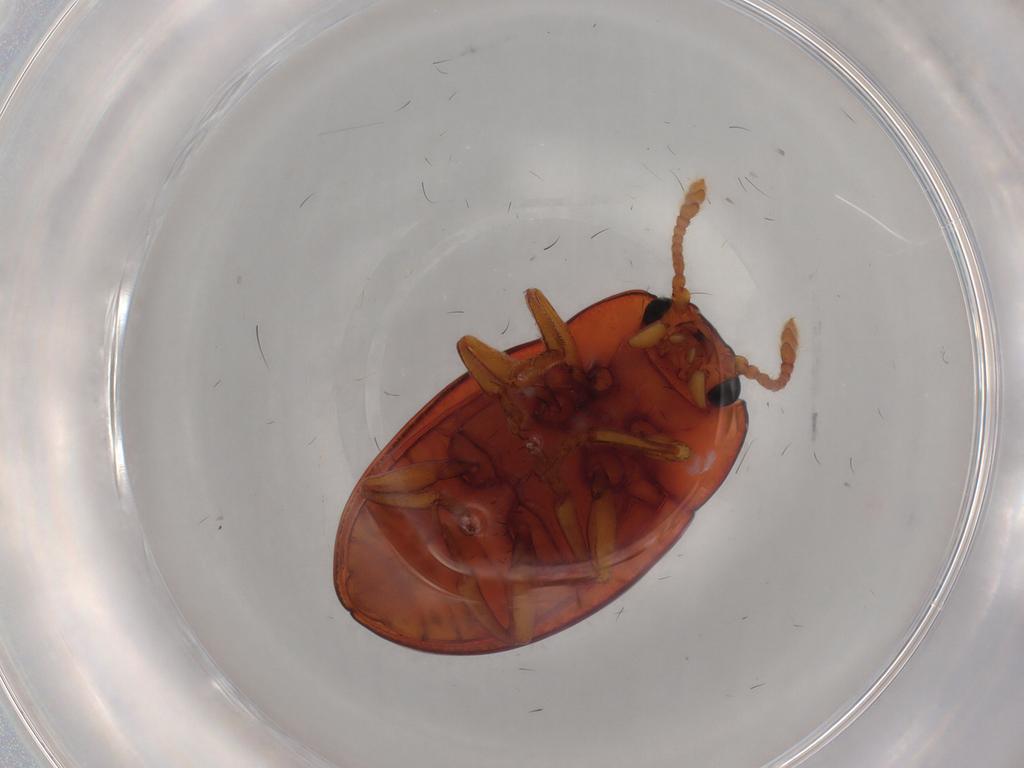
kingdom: Animalia
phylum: Arthropoda
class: Insecta
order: Coleoptera
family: Erotylidae
